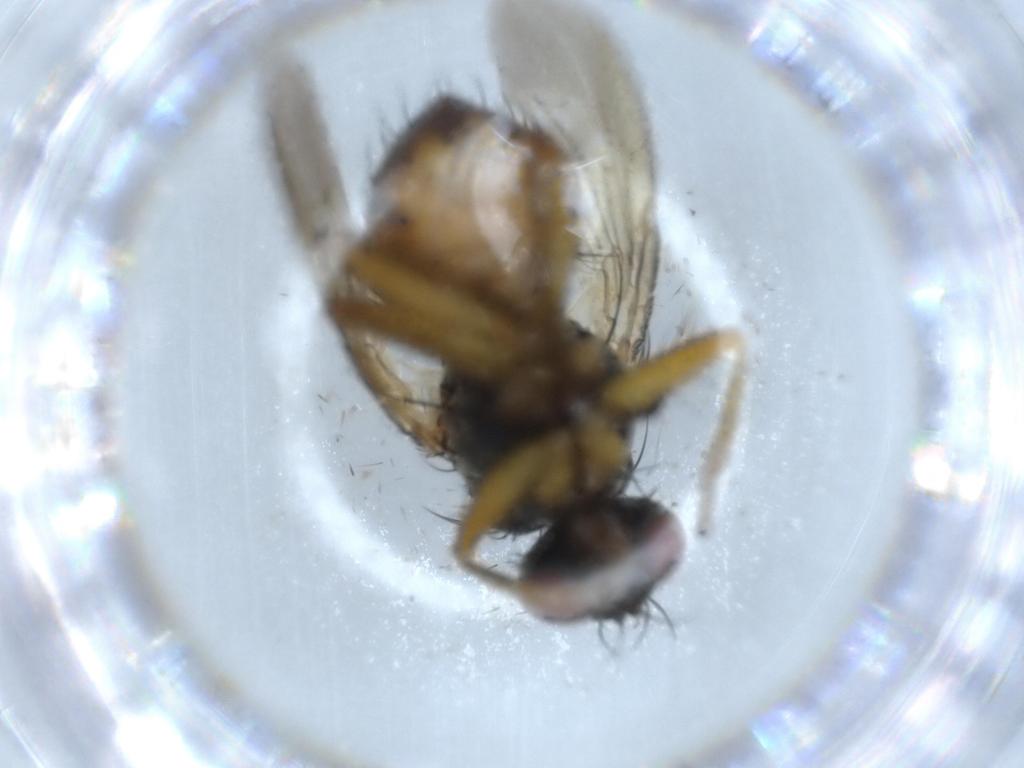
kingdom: Animalia
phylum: Arthropoda
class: Insecta
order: Diptera
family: Muscidae
